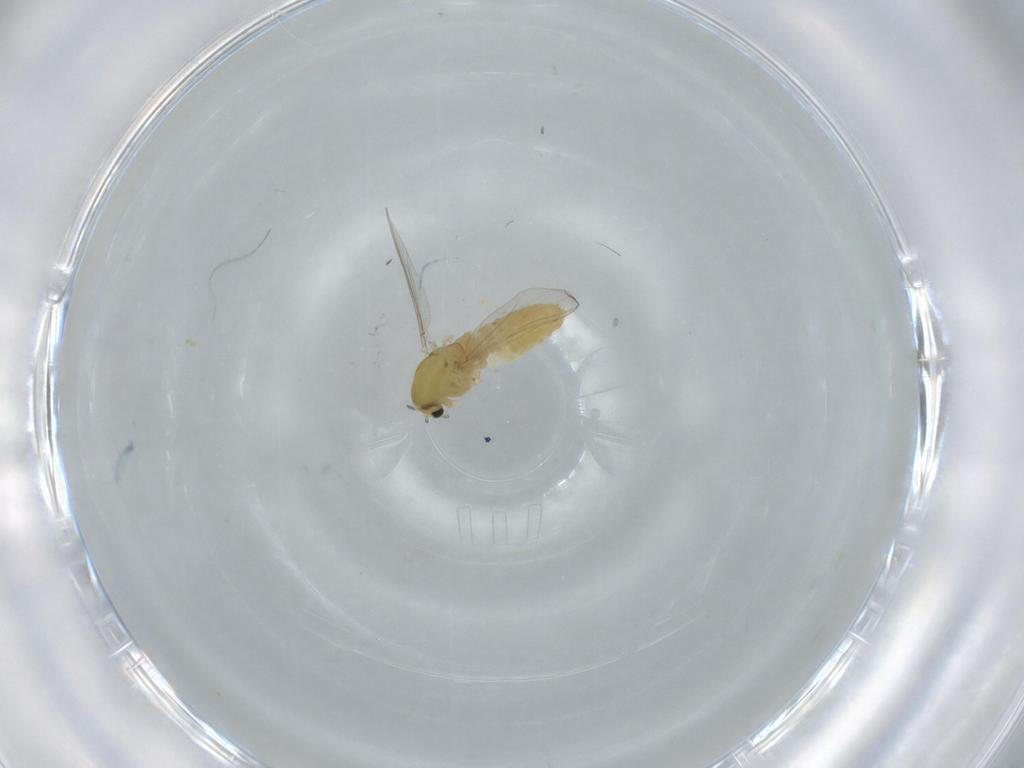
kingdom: Animalia
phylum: Arthropoda
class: Insecta
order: Diptera
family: Chironomidae
